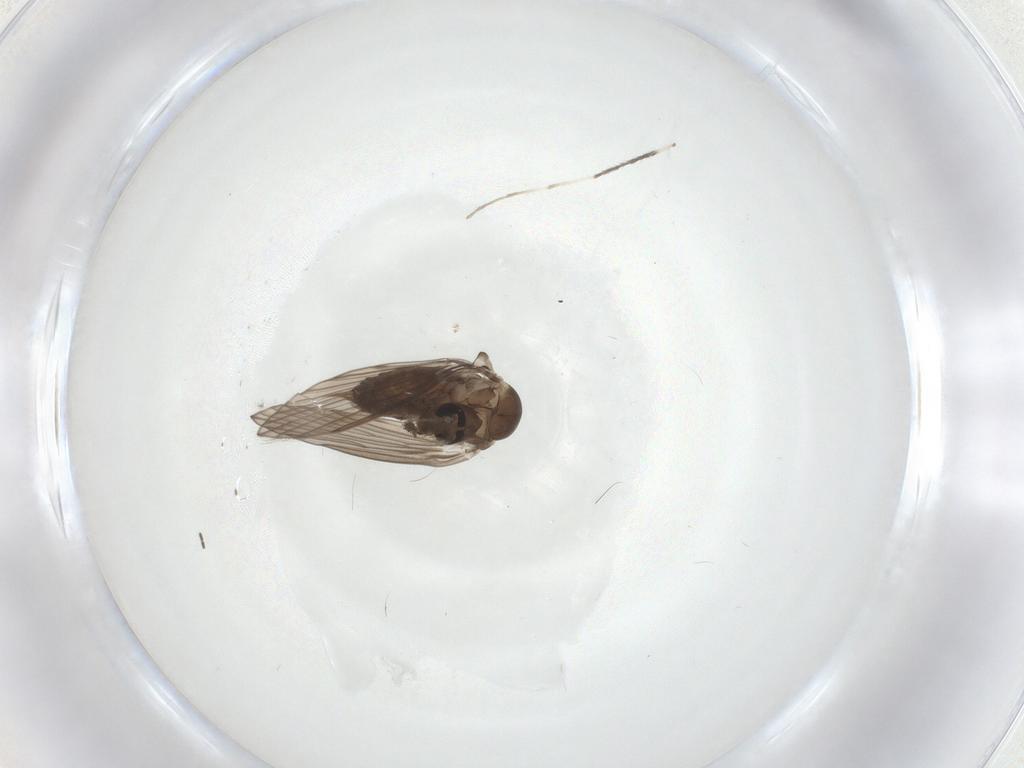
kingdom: Animalia
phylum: Arthropoda
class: Insecta
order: Diptera
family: Psychodidae
